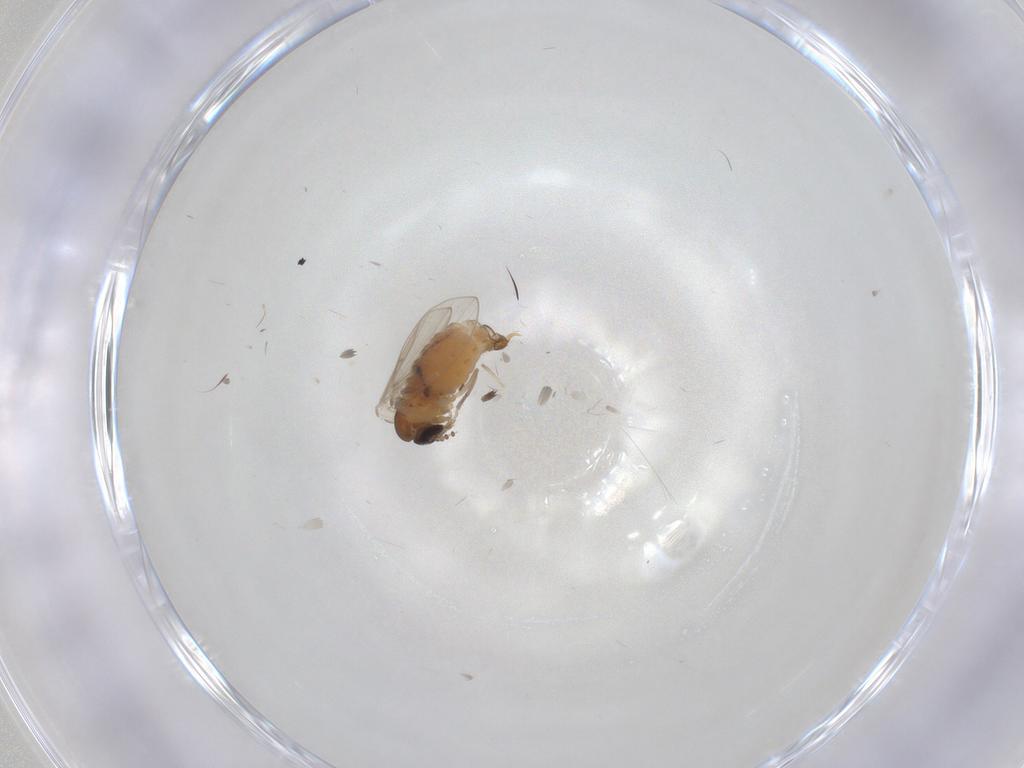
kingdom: Animalia
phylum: Arthropoda
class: Insecta
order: Diptera
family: Psychodidae
